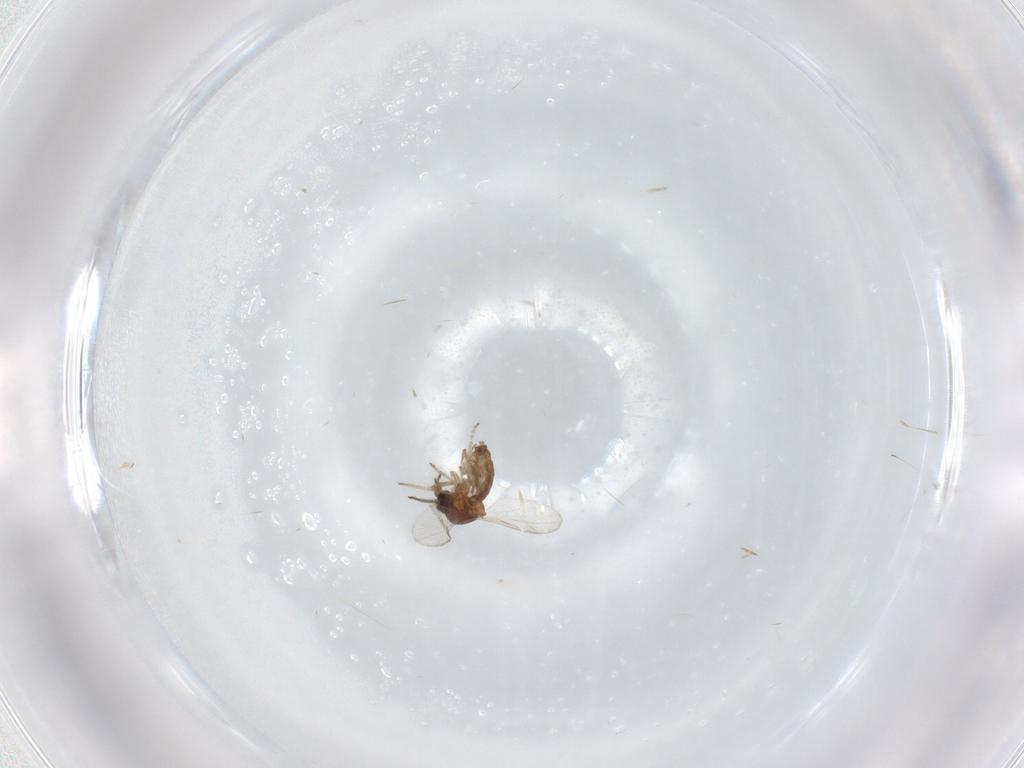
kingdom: Animalia
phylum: Arthropoda
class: Insecta
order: Diptera
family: Ceratopogonidae
